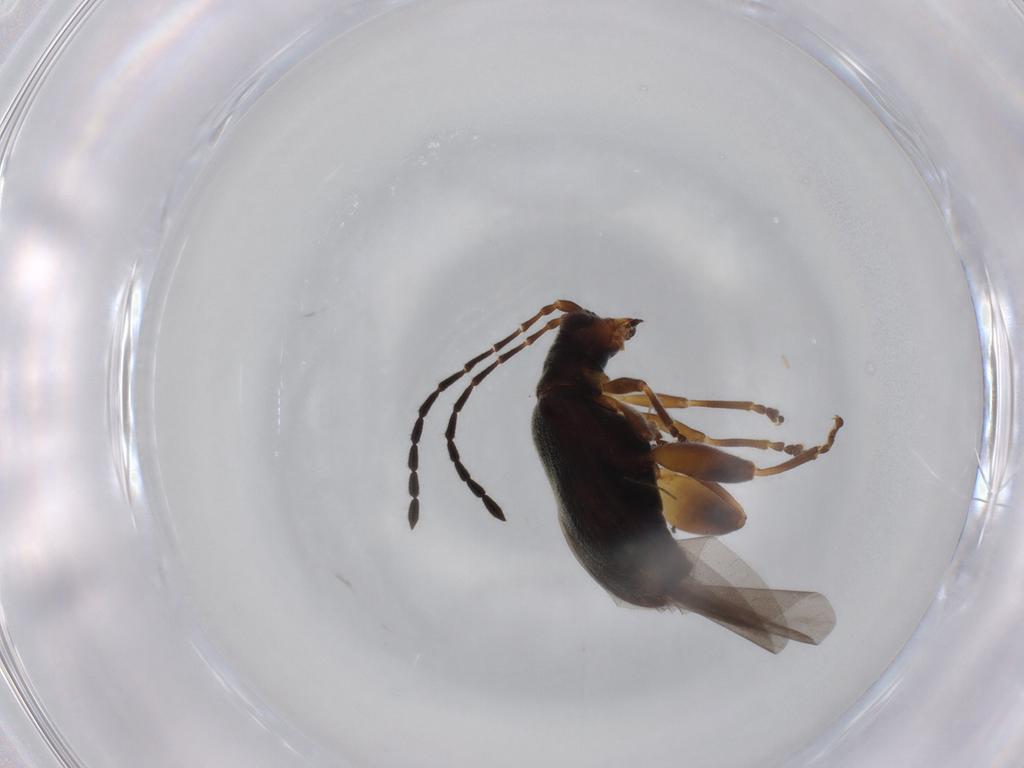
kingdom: Animalia
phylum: Arthropoda
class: Insecta
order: Coleoptera
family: Chrysomelidae
